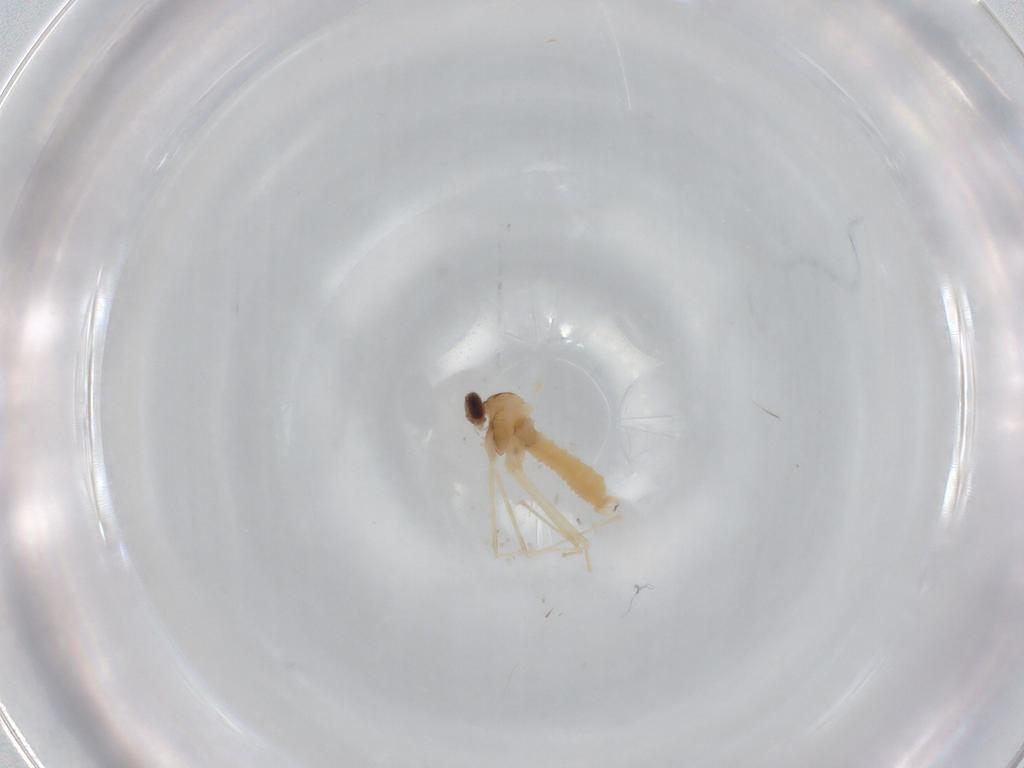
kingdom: Animalia
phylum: Arthropoda
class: Insecta
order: Diptera
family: Cecidomyiidae
